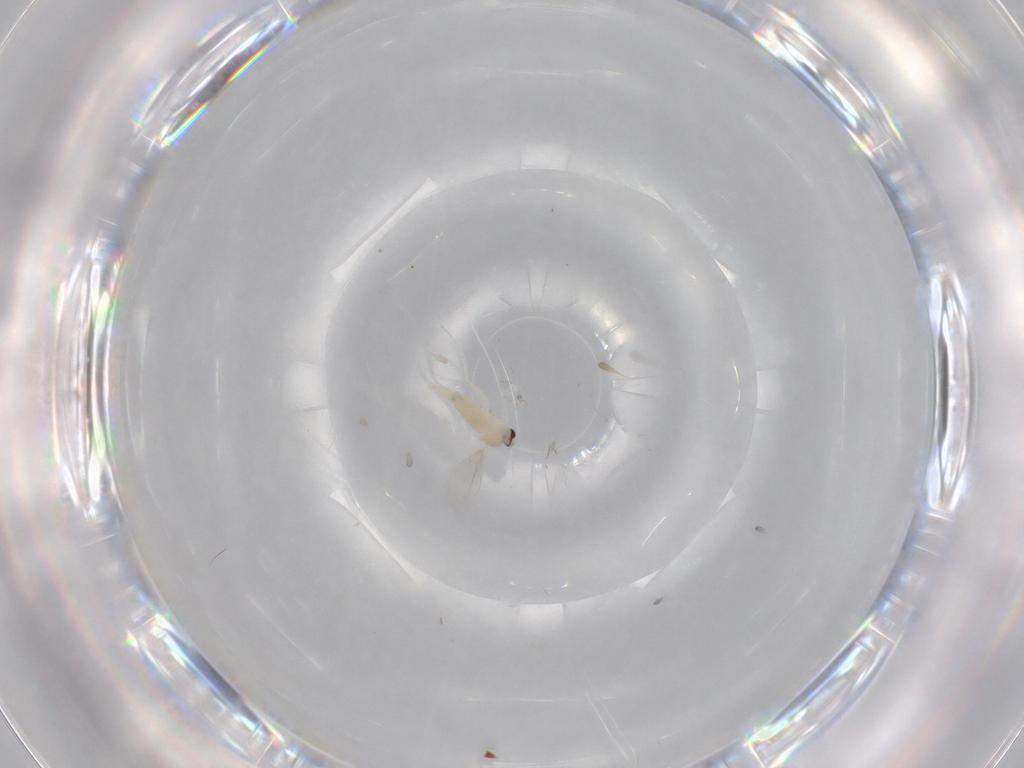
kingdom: Animalia
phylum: Arthropoda
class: Insecta
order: Diptera
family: Cecidomyiidae
